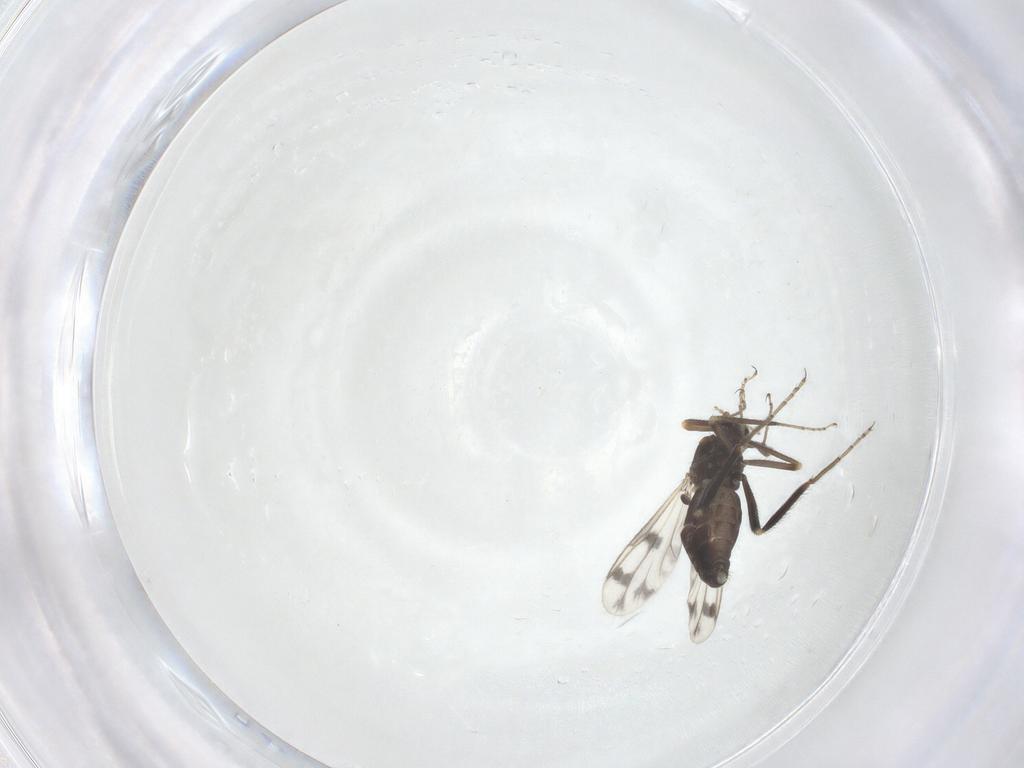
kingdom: Animalia
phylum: Arthropoda
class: Insecta
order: Diptera
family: Ceratopogonidae
